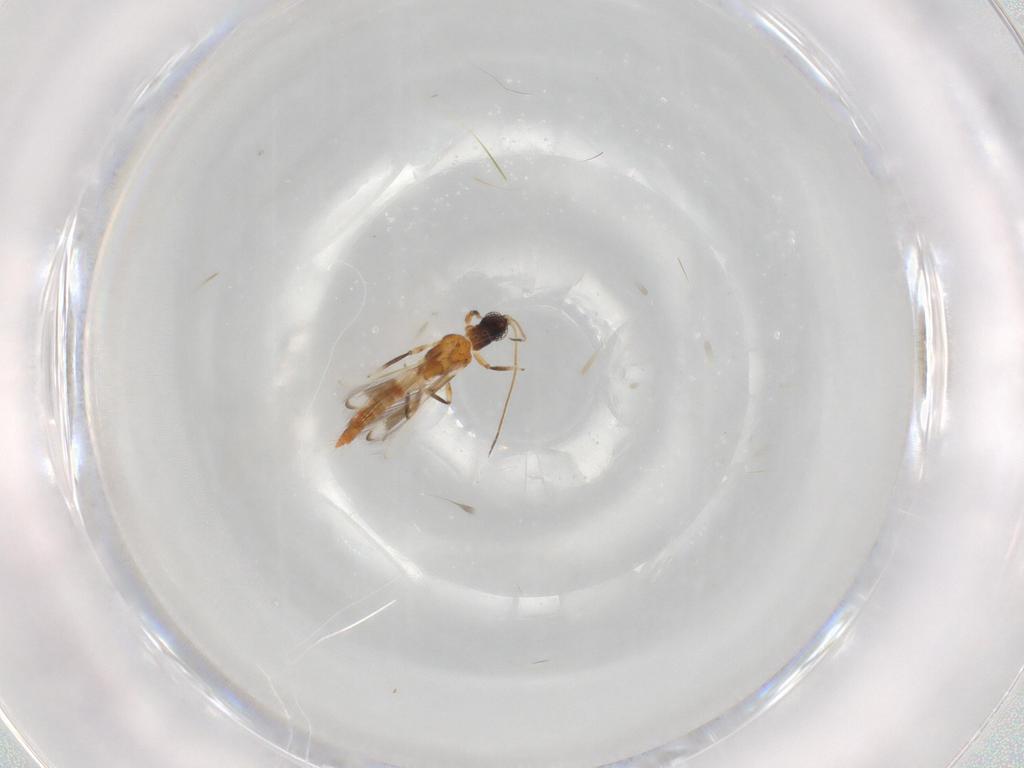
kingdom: Animalia
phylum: Arthropoda
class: Insecta
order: Thysanoptera
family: Aeolothripidae
